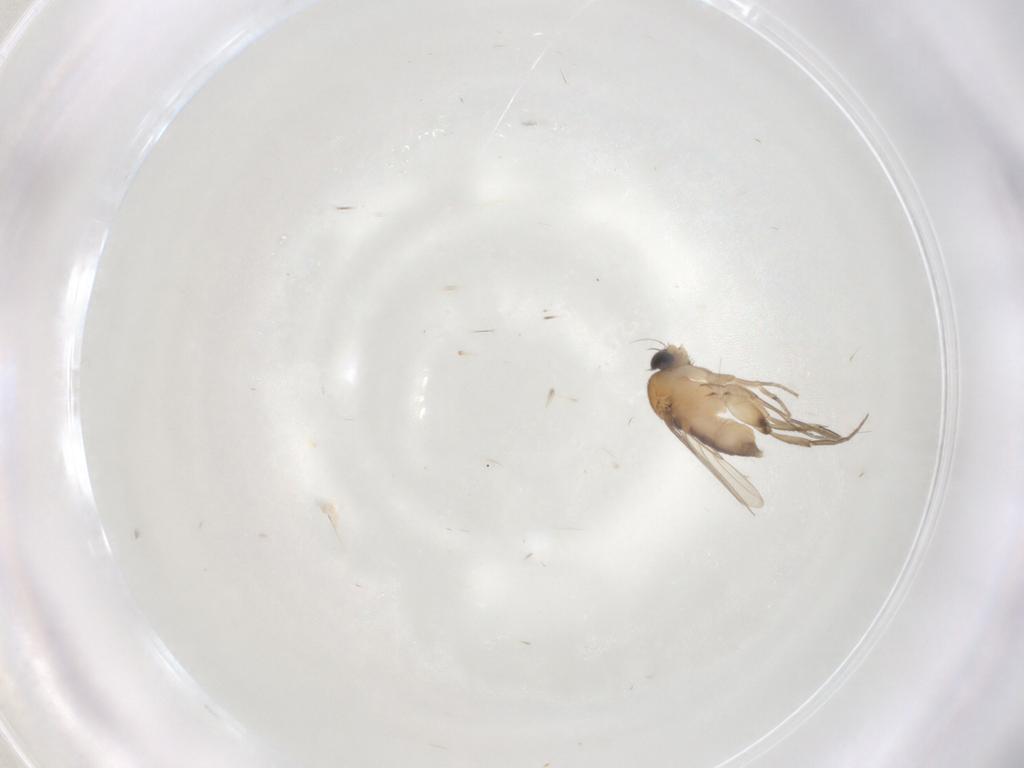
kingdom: Animalia
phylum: Arthropoda
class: Insecta
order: Diptera
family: Phoridae
